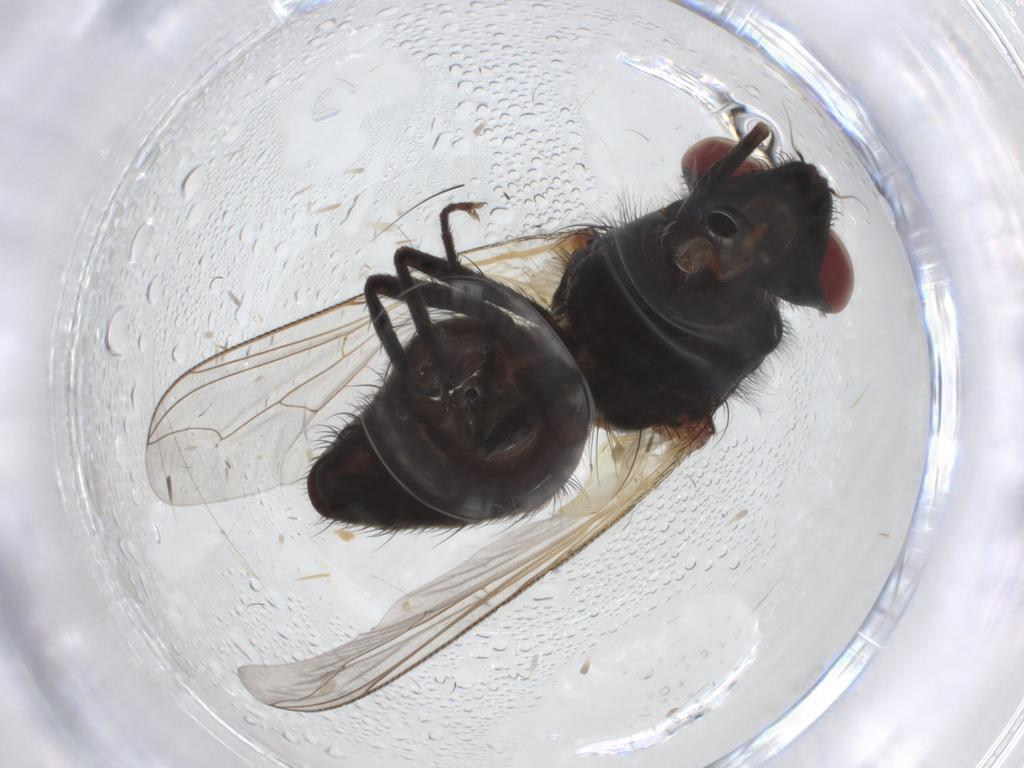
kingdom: Animalia
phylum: Arthropoda
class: Insecta
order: Diptera
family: Sarcophagidae
